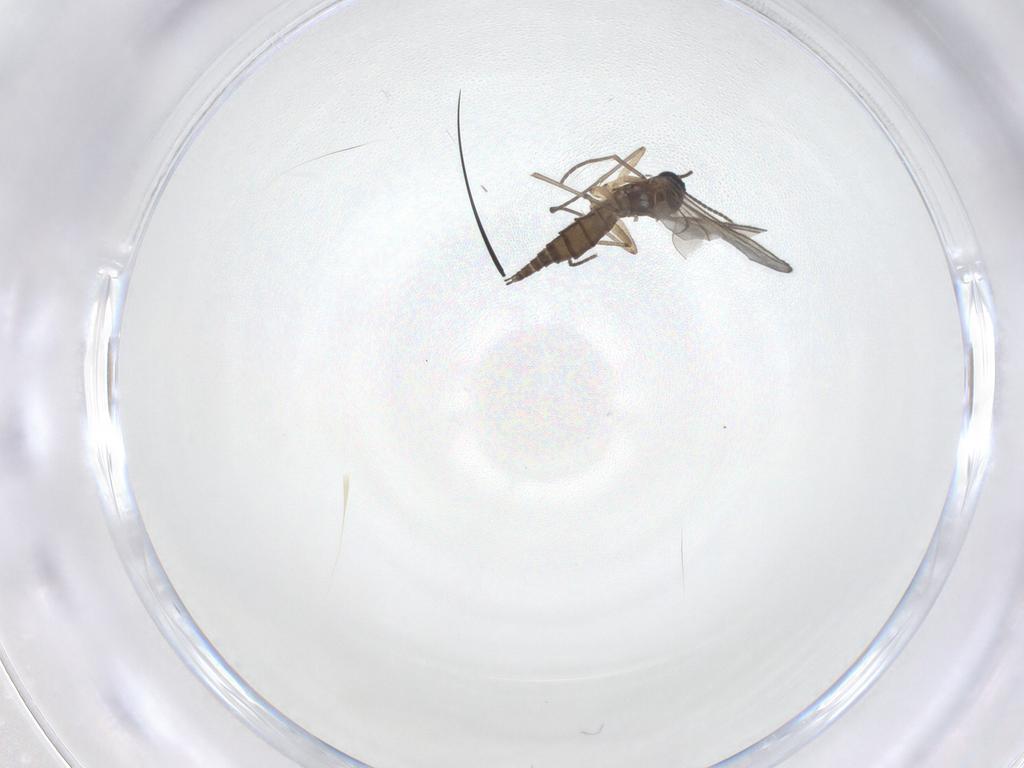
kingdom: Animalia
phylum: Arthropoda
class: Insecta
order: Diptera
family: Sciaridae
